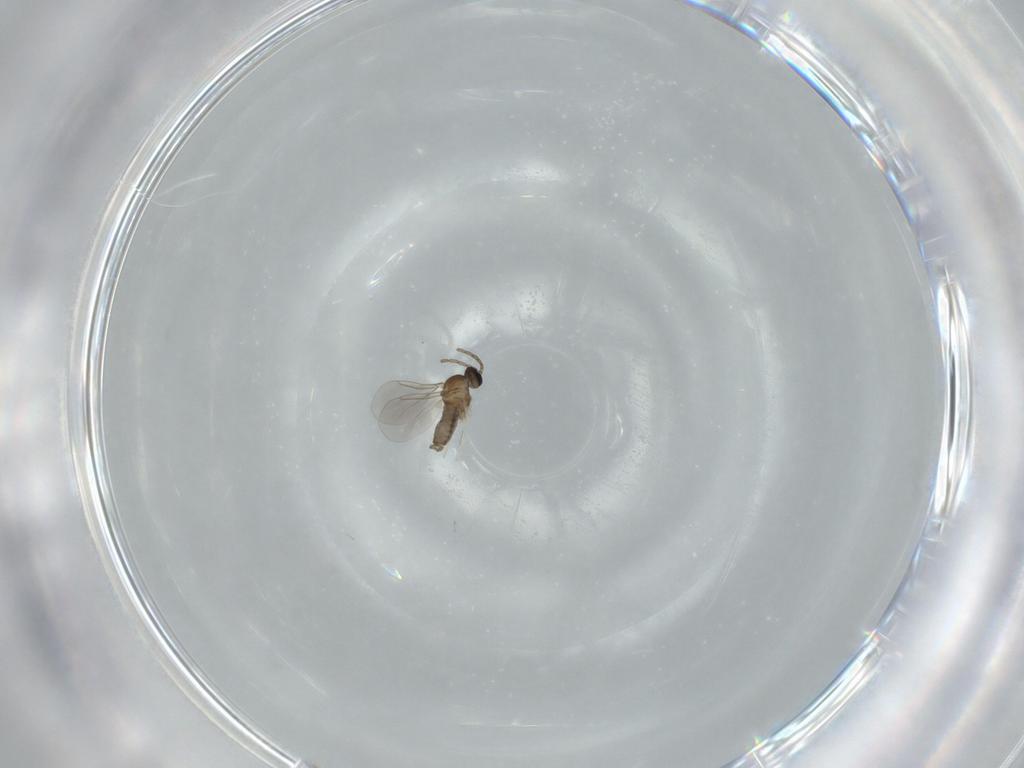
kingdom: Animalia
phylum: Arthropoda
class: Insecta
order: Diptera
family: Cecidomyiidae
